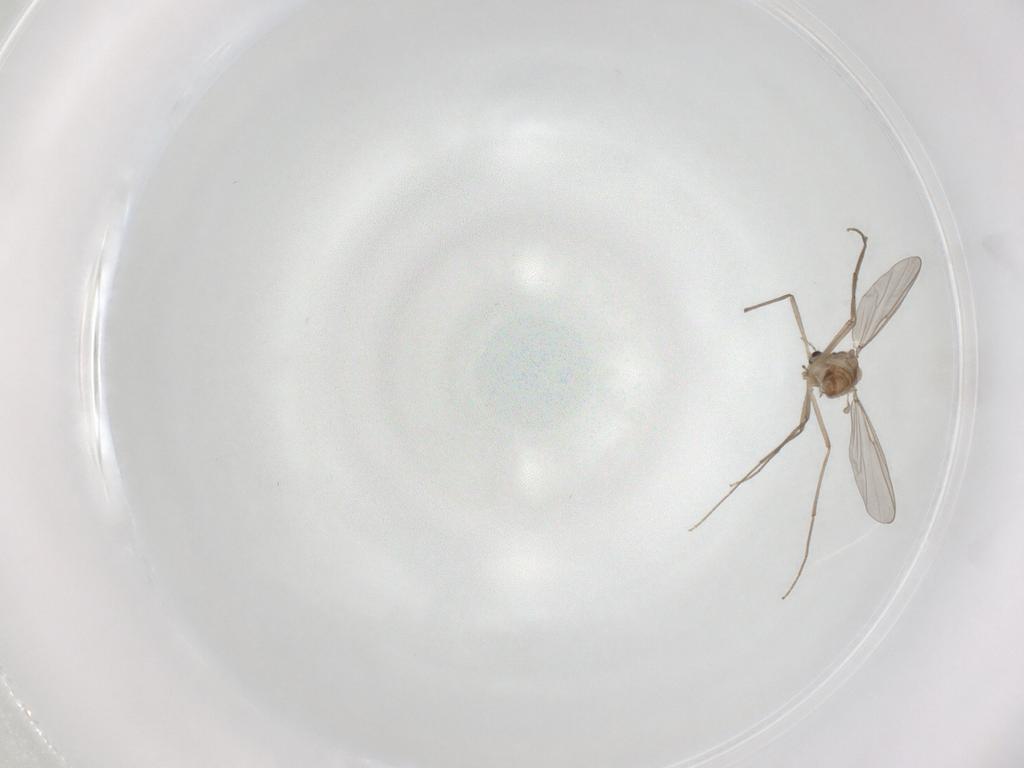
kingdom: Animalia
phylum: Arthropoda
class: Insecta
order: Diptera
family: Chironomidae
